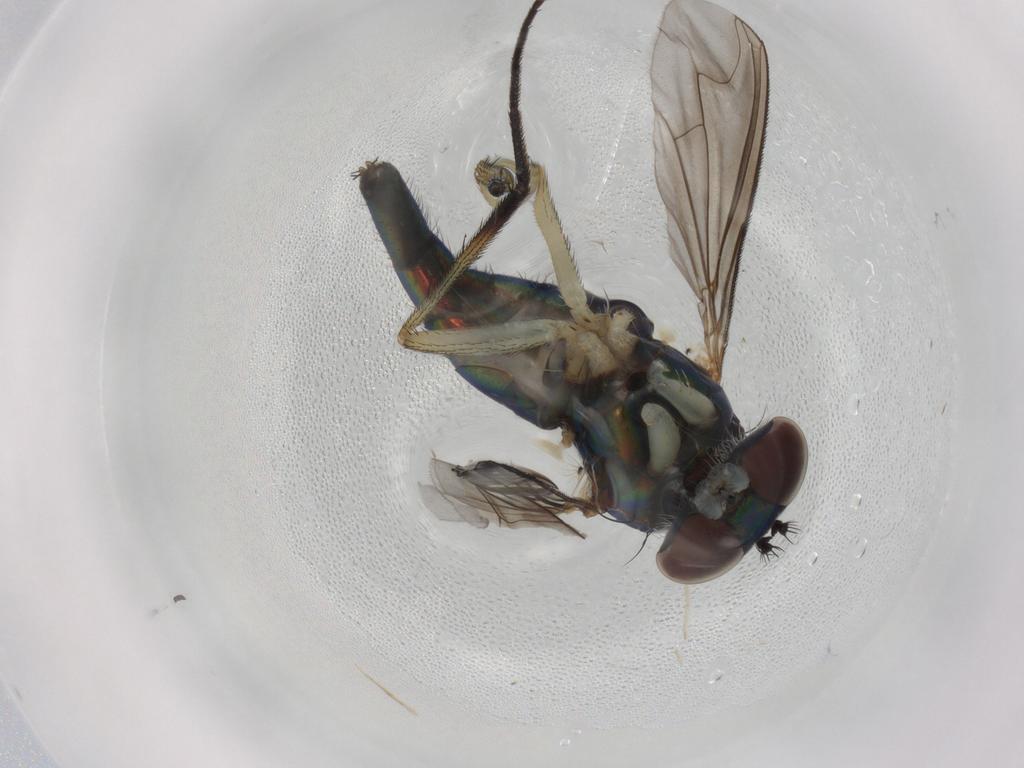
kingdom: Animalia
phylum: Arthropoda
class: Insecta
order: Diptera
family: Dolichopodidae
